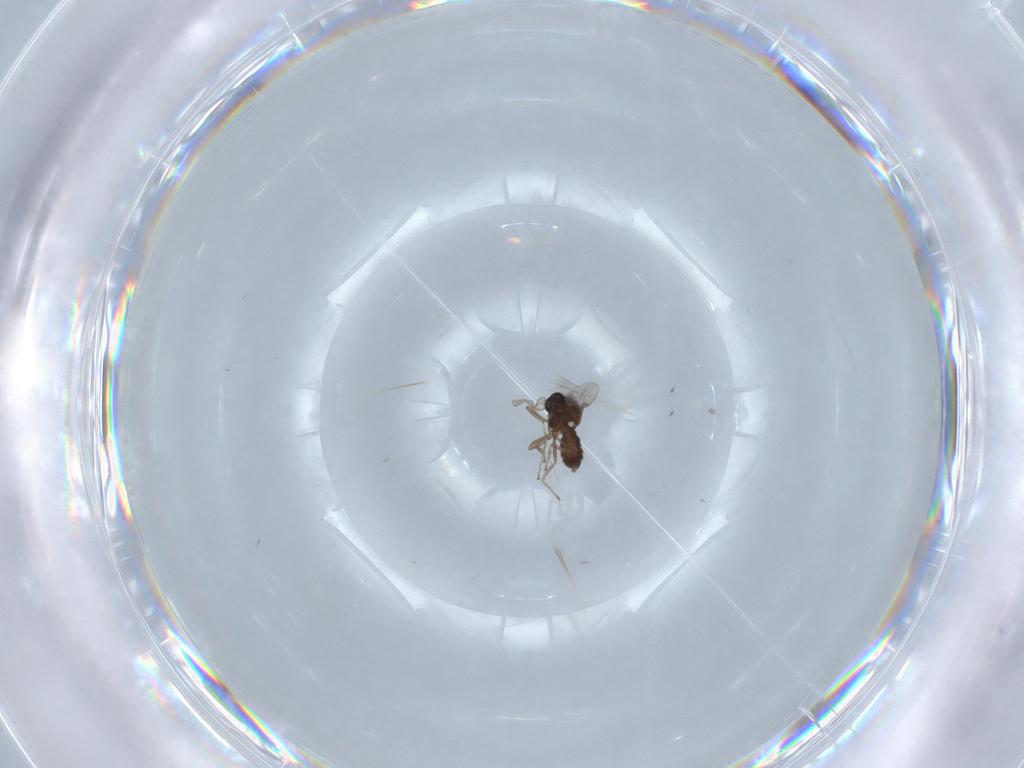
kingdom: Animalia
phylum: Arthropoda
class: Insecta
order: Diptera
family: Ceratopogonidae
